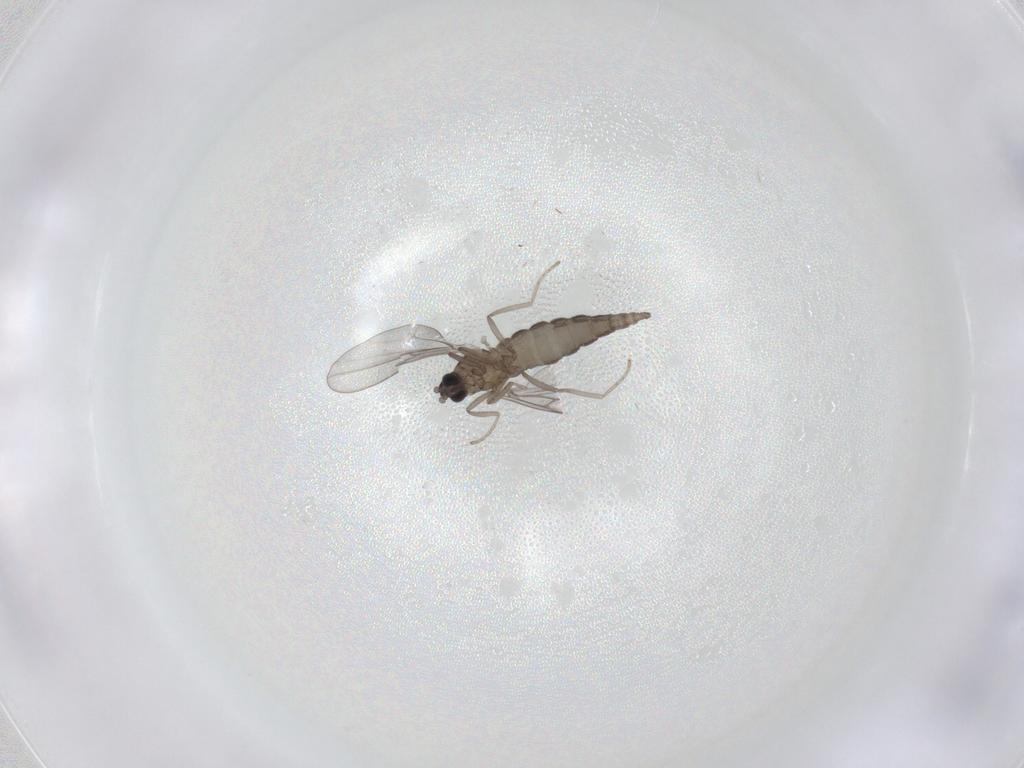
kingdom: Animalia
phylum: Arthropoda
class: Insecta
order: Diptera
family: Cecidomyiidae
